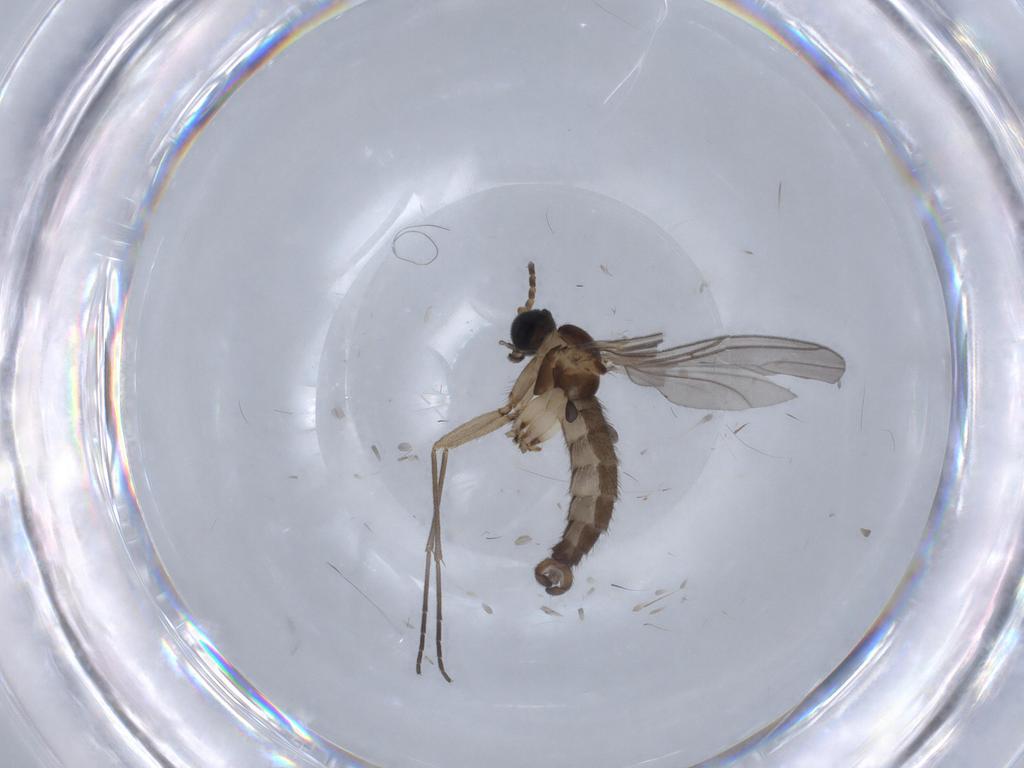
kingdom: Animalia
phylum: Arthropoda
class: Insecta
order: Diptera
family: Sciaridae
